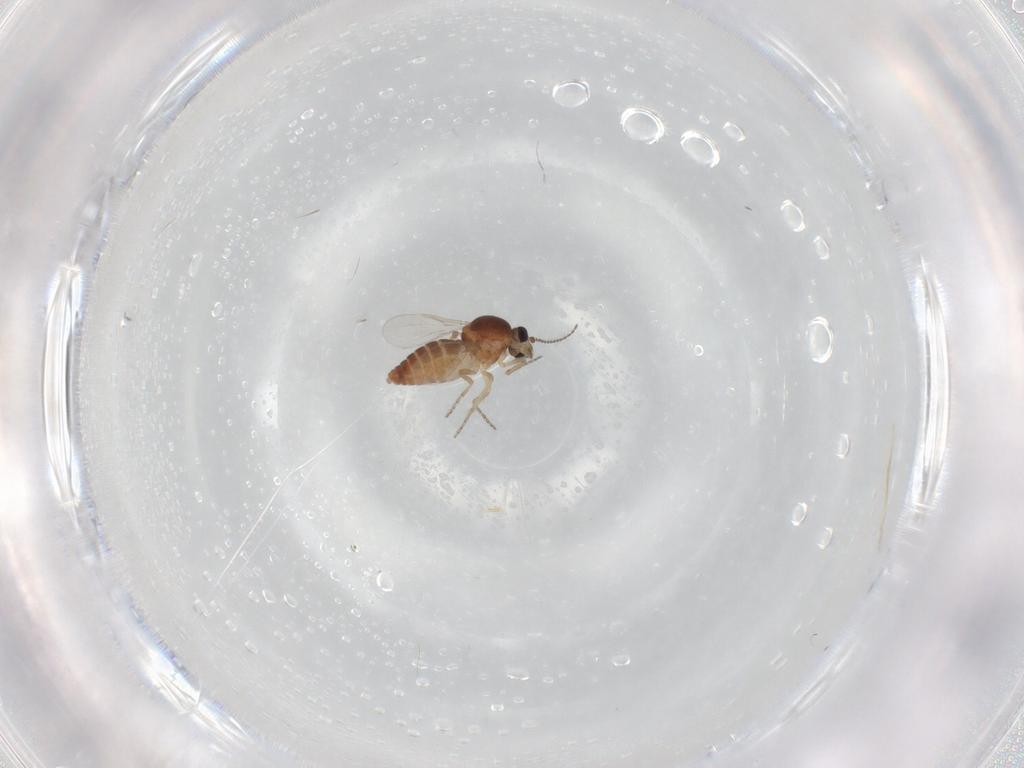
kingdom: Animalia
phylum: Arthropoda
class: Insecta
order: Diptera
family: Ceratopogonidae
